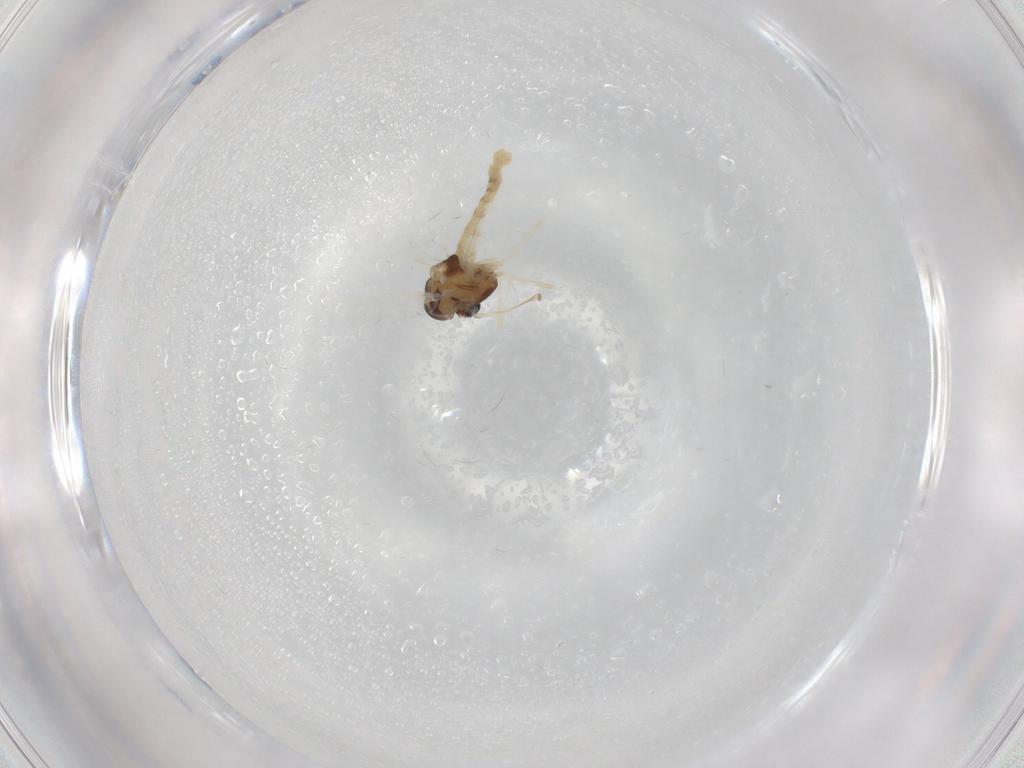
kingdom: Animalia
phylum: Arthropoda
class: Insecta
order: Diptera
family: Chironomidae
